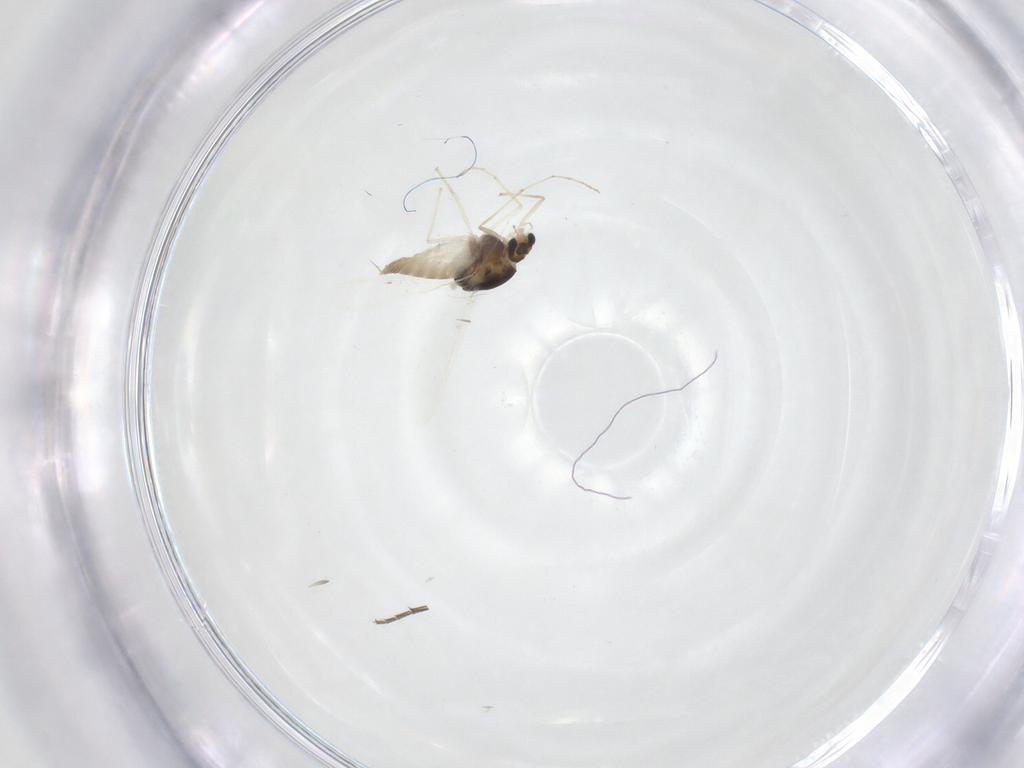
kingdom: Animalia
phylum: Arthropoda
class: Insecta
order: Diptera
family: Chironomidae
